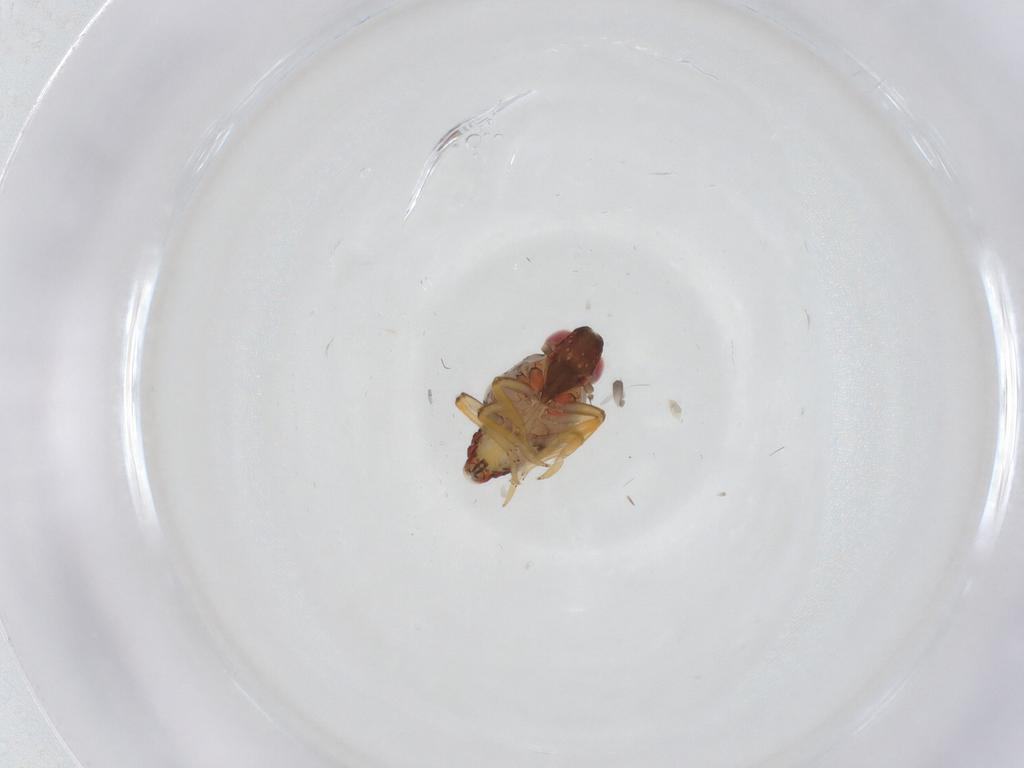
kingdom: Animalia
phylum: Arthropoda
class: Insecta
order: Hemiptera
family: Fulgoroidea_incertae_sedis
